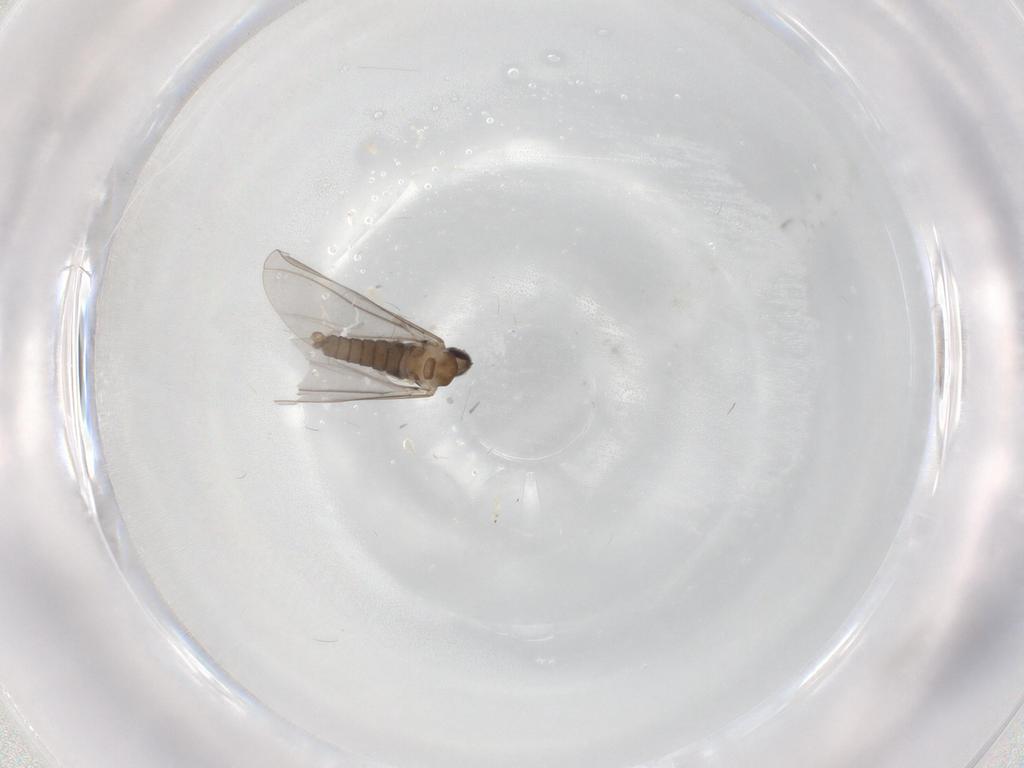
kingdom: Animalia
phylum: Arthropoda
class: Insecta
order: Diptera
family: Cecidomyiidae
